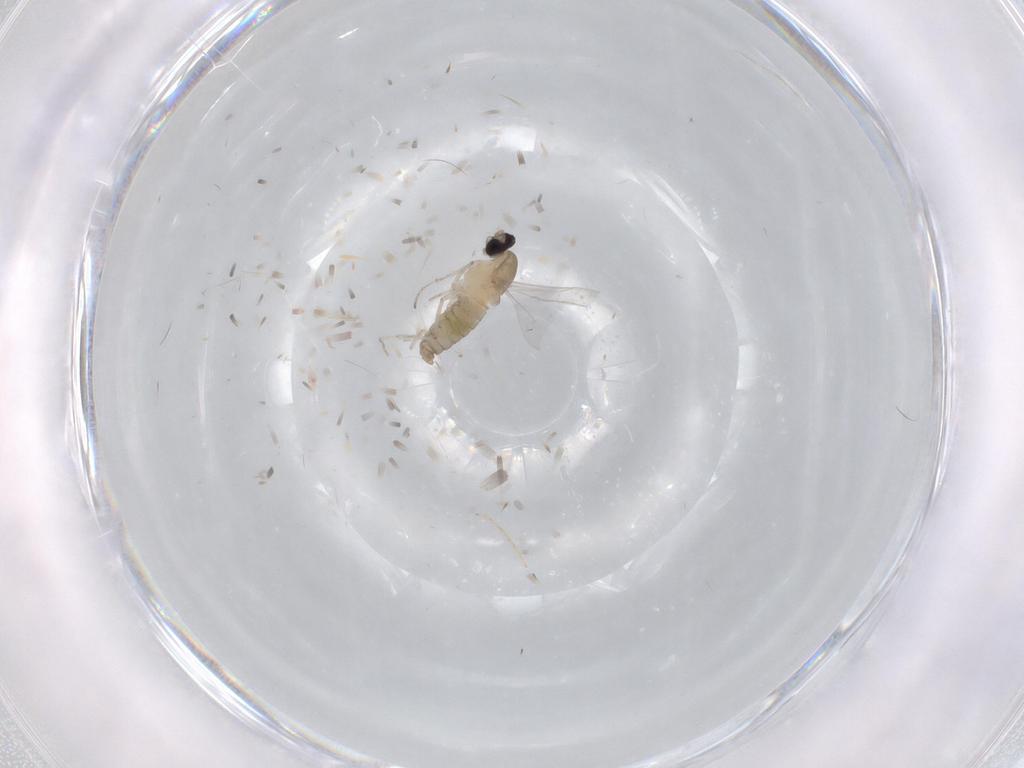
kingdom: Animalia
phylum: Arthropoda
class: Insecta
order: Diptera
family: Cecidomyiidae
